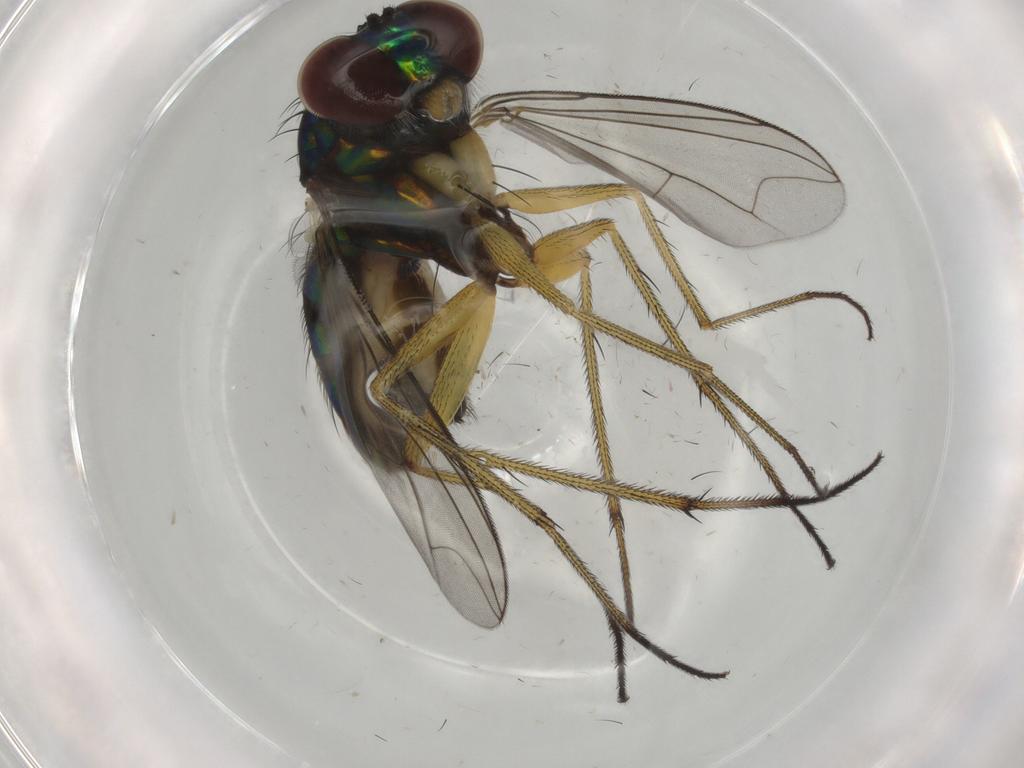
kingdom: Animalia
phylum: Arthropoda
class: Insecta
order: Diptera
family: Dolichopodidae
